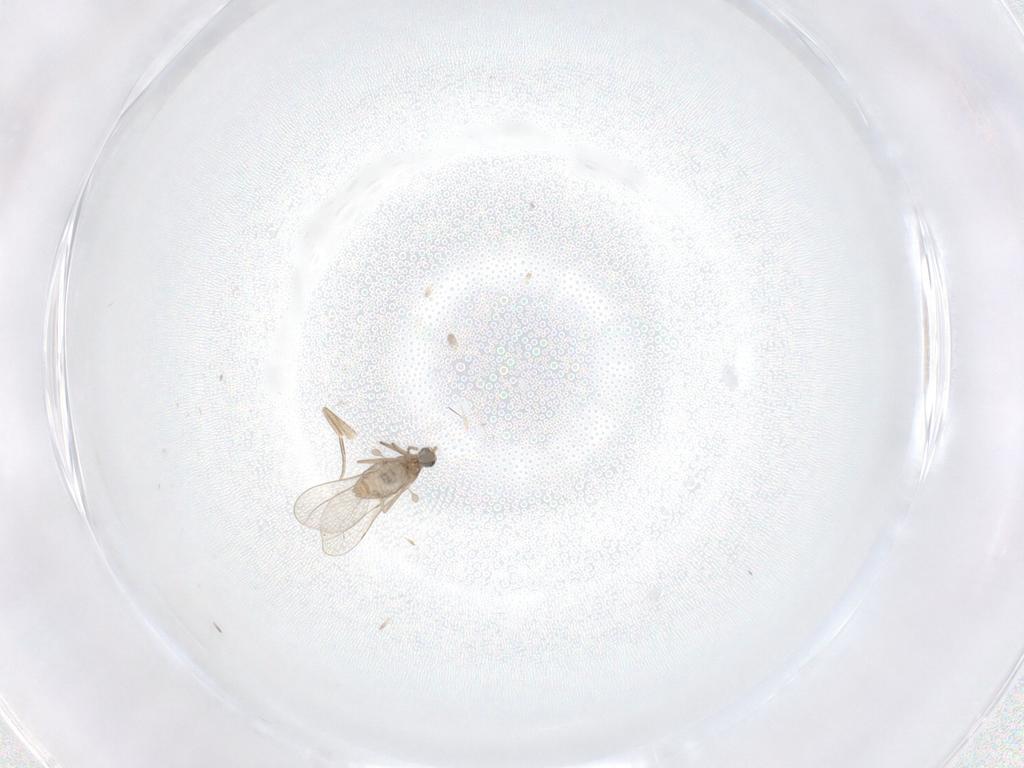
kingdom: Animalia
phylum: Arthropoda
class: Insecta
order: Diptera
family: Cecidomyiidae
